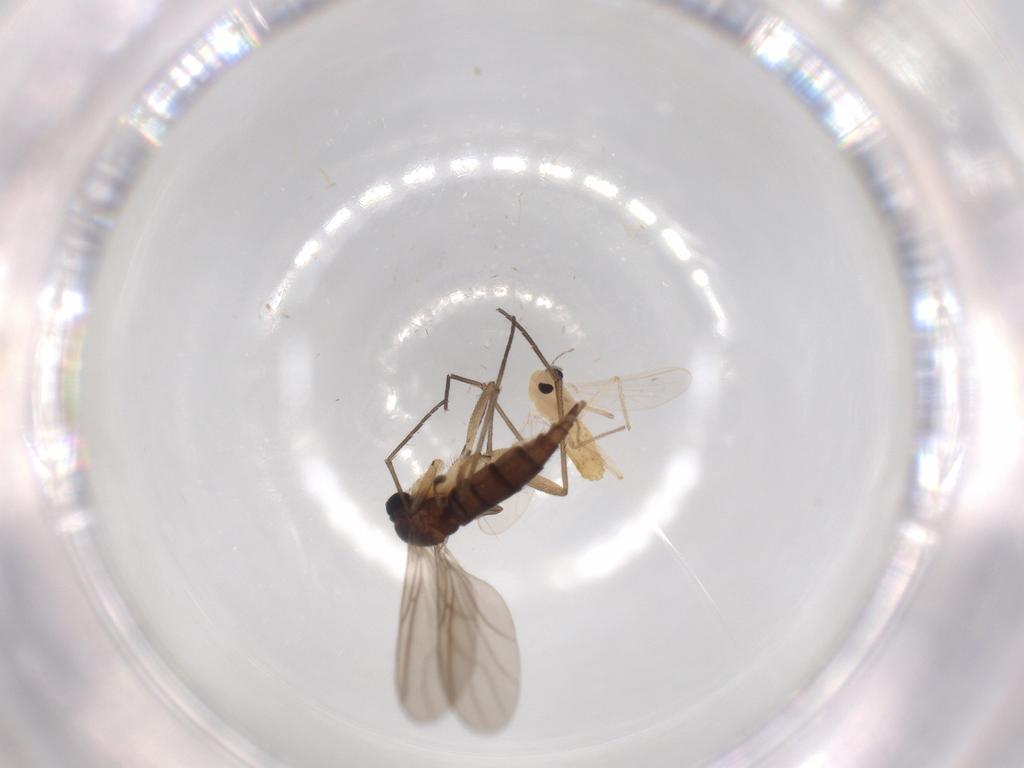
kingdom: Animalia
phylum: Arthropoda
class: Insecta
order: Diptera
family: Sciaridae
